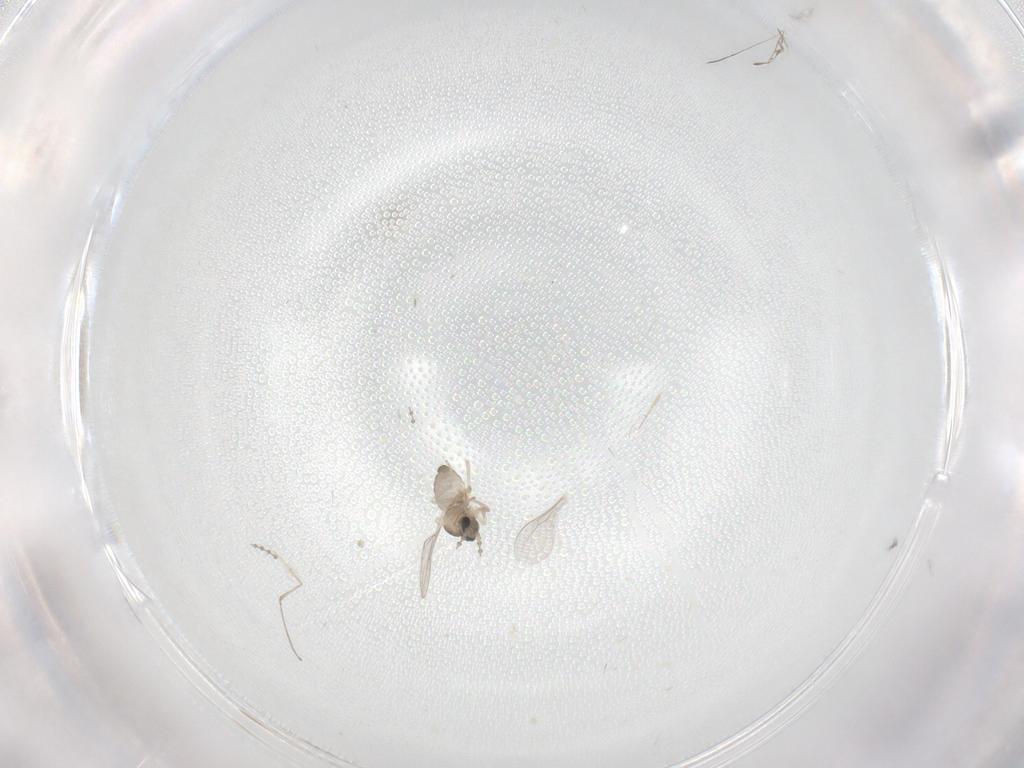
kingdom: Animalia
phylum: Arthropoda
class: Insecta
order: Diptera
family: Cecidomyiidae
